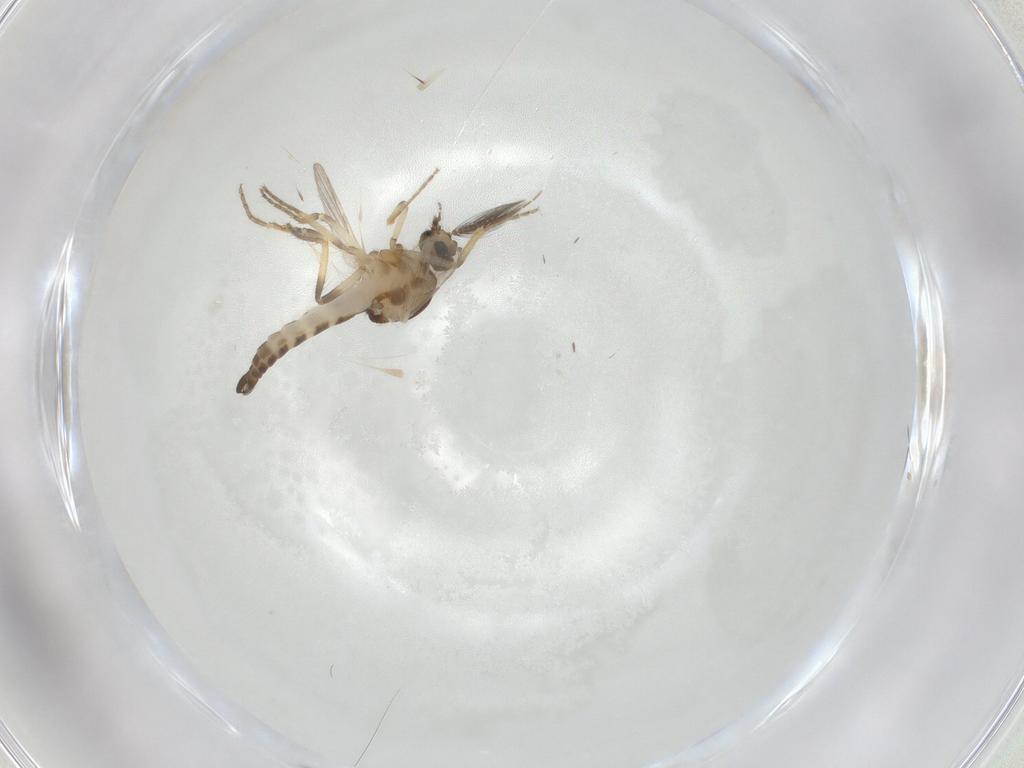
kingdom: Animalia
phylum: Arthropoda
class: Insecta
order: Diptera
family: Ceratopogonidae
